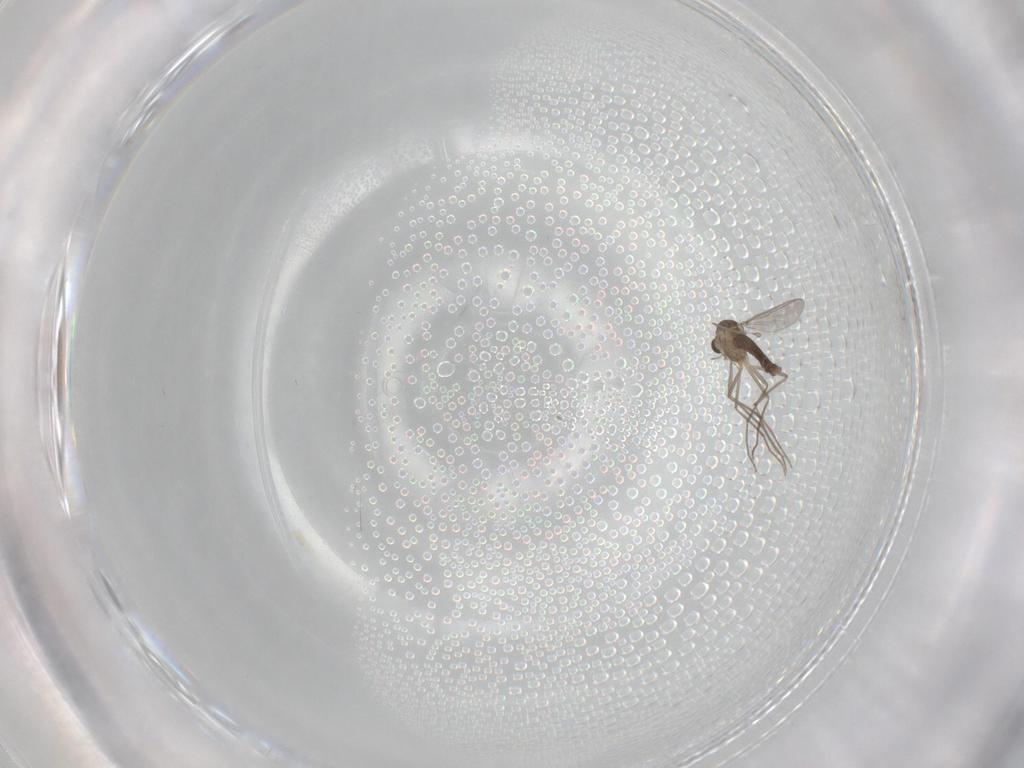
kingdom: Animalia
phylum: Arthropoda
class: Insecta
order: Diptera
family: Chironomidae
